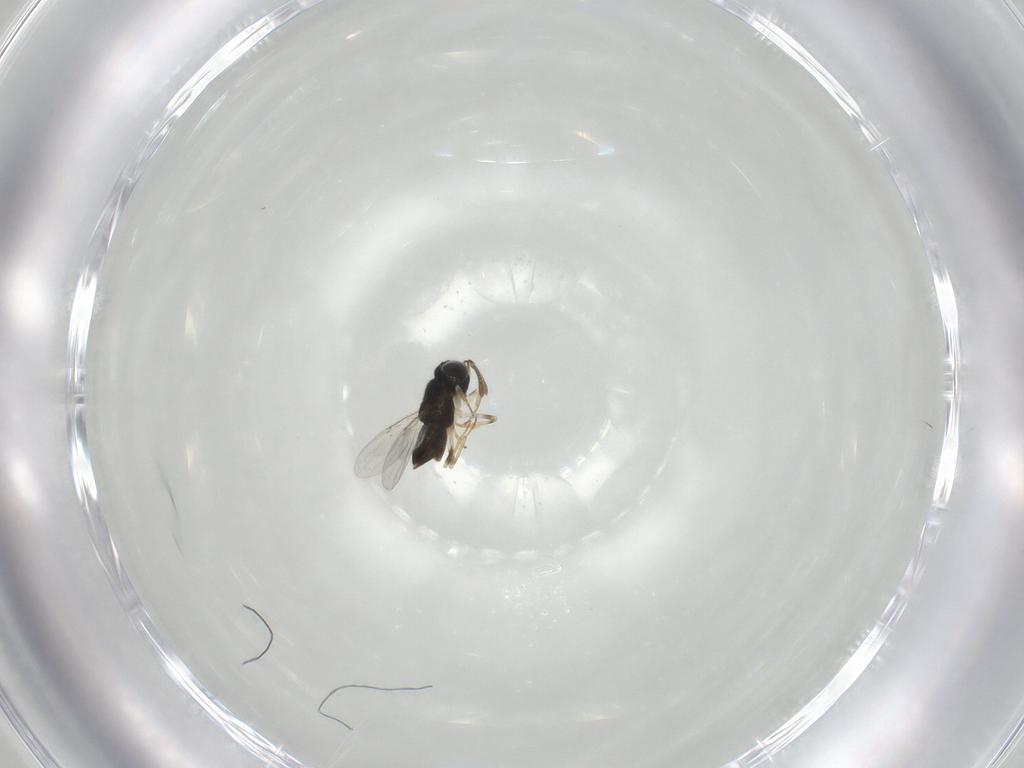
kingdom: Animalia
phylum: Arthropoda
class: Insecta
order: Hymenoptera
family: Encyrtidae
